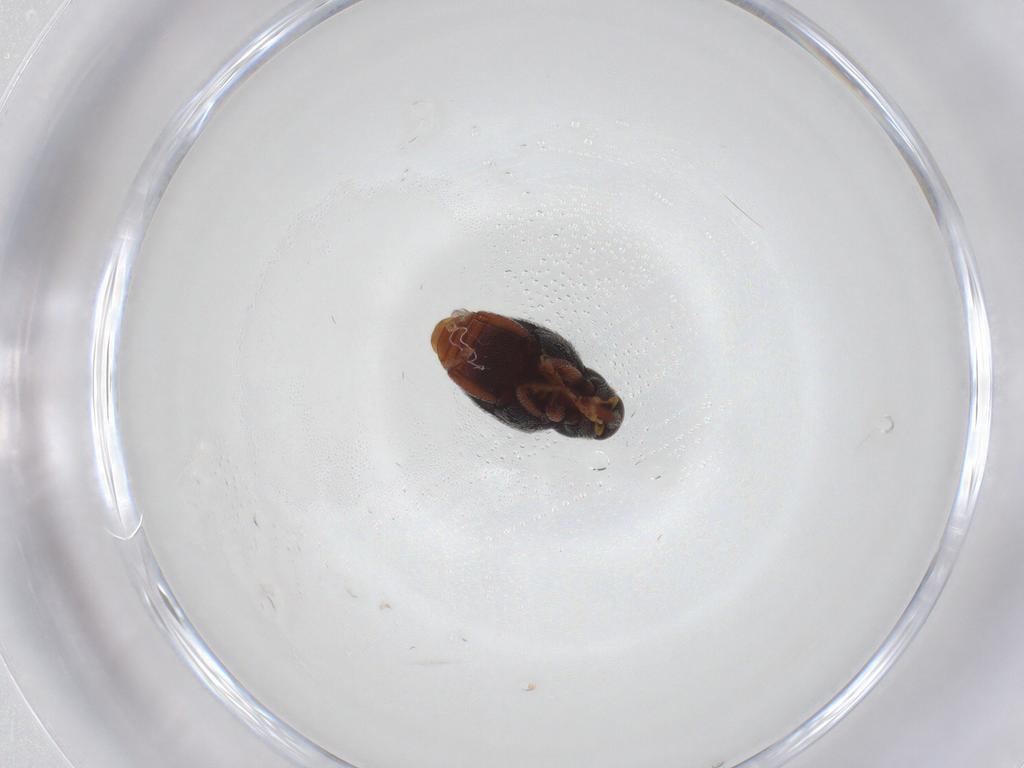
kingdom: Animalia
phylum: Arthropoda
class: Insecta
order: Coleoptera
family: Curculionidae
